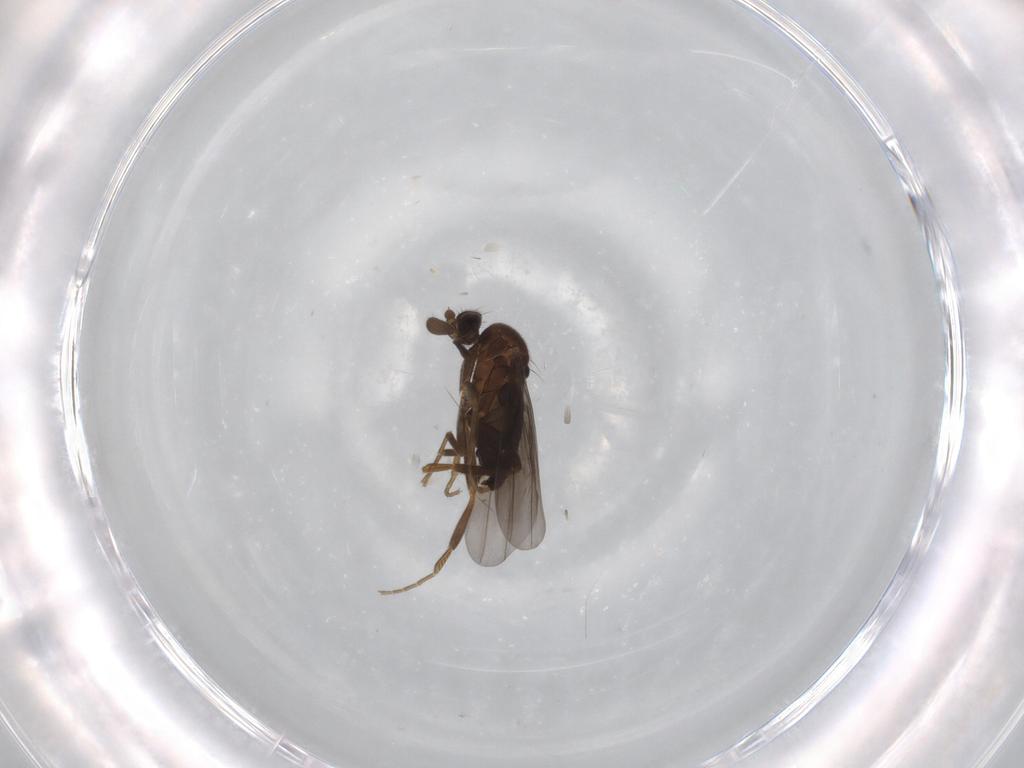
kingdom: Animalia
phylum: Arthropoda
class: Insecta
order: Diptera
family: Phoridae
